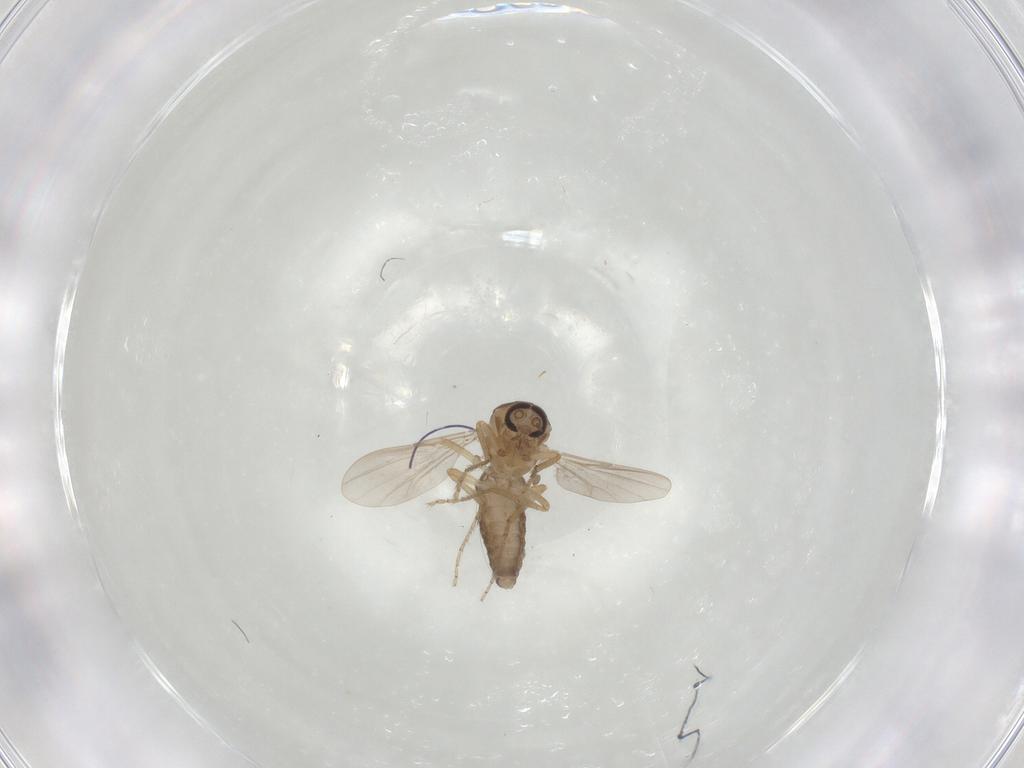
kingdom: Animalia
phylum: Arthropoda
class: Insecta
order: Diptera
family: Ceratopogonidae
